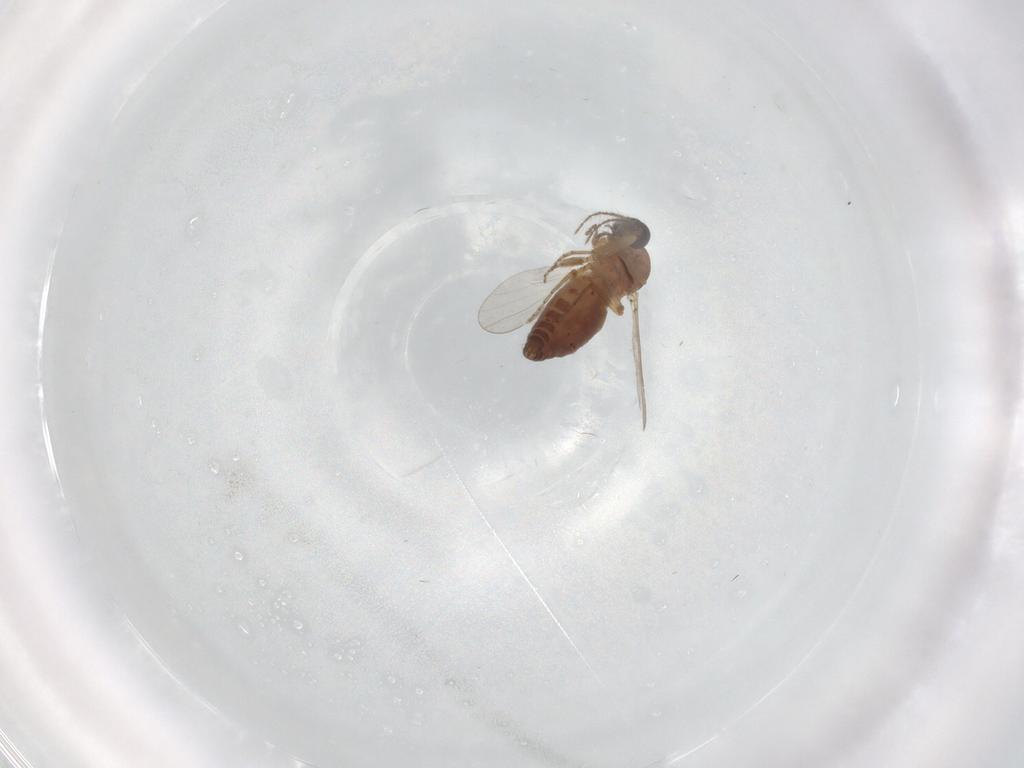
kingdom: Animalia
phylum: Arthropoda
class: Insecta
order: Diptera
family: Ceratopogonidae
